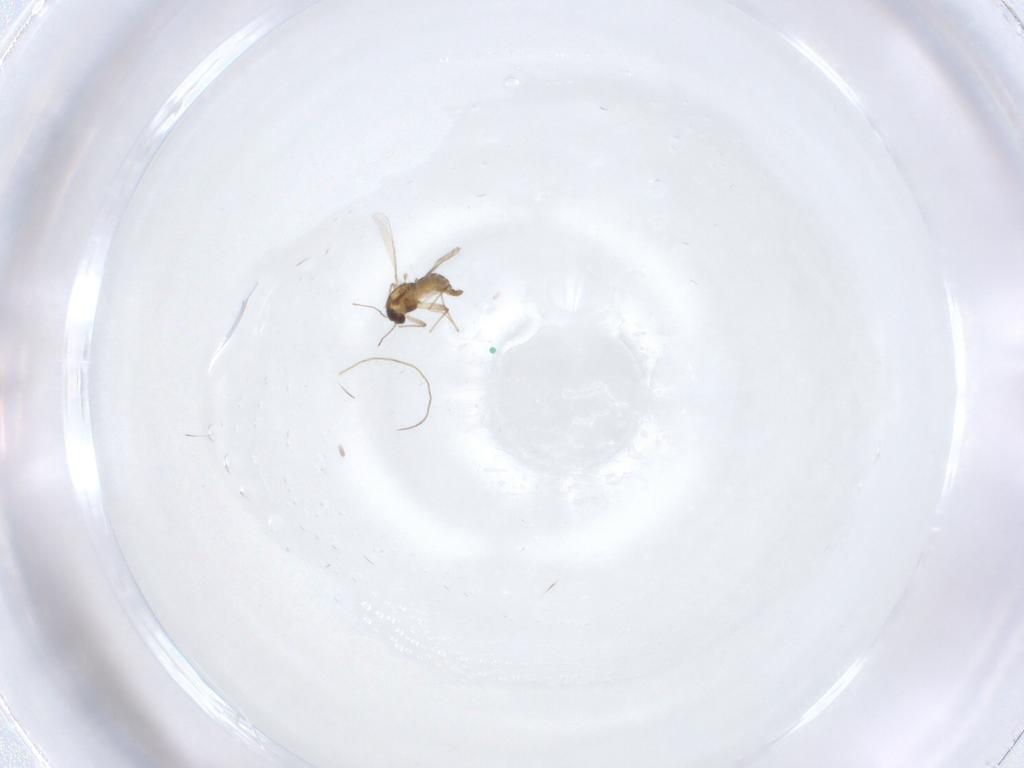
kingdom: Animalia
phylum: Arthropoda
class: Insecta
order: Diptera
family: Chironomidae
